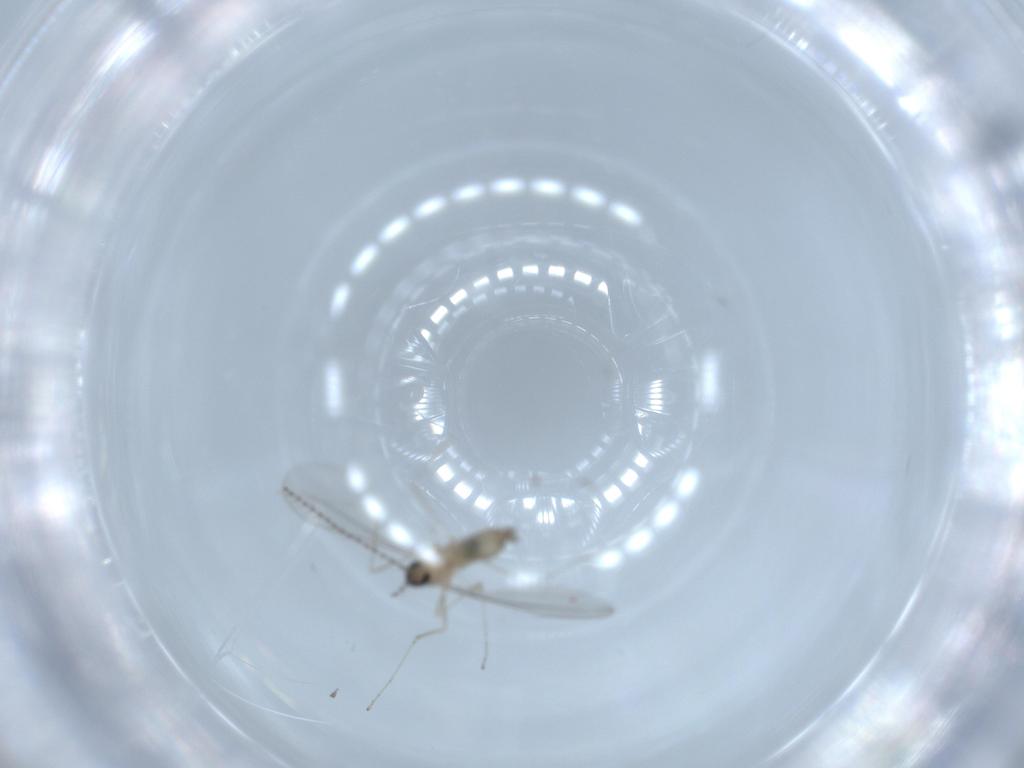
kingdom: Animalia
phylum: Arthropoda
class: Insecta
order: Diptera
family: Cecidomyiidae
